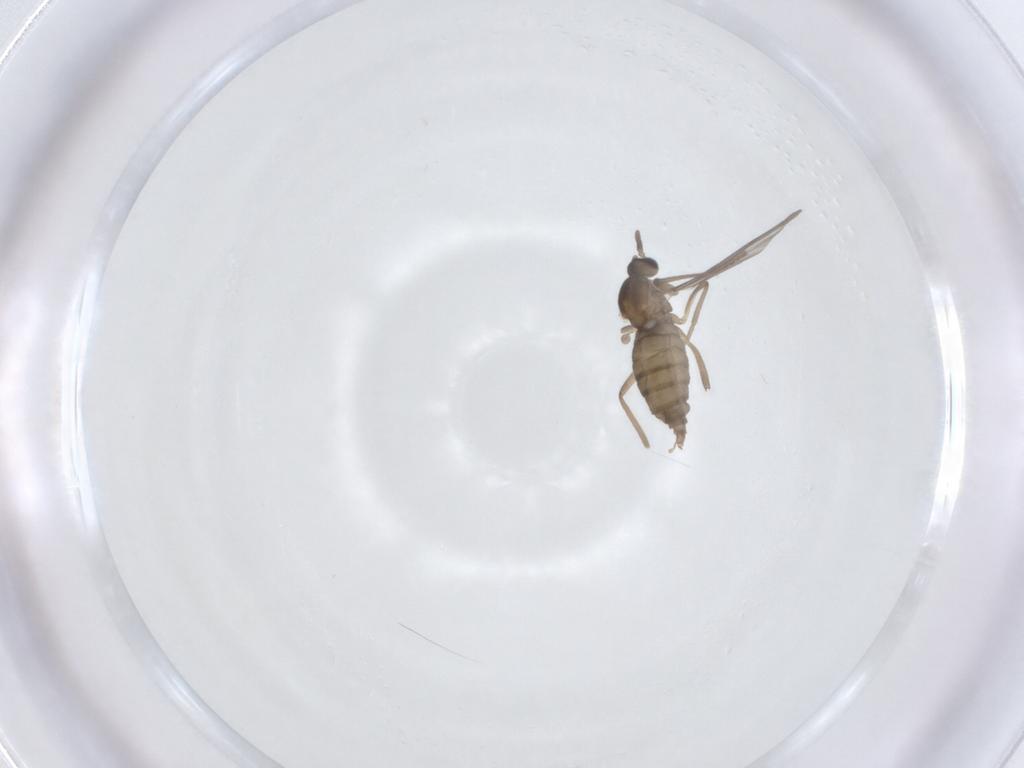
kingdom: Animalia
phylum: Arthropoda
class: Insecta
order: Diptera
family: Cecidomyiidae
